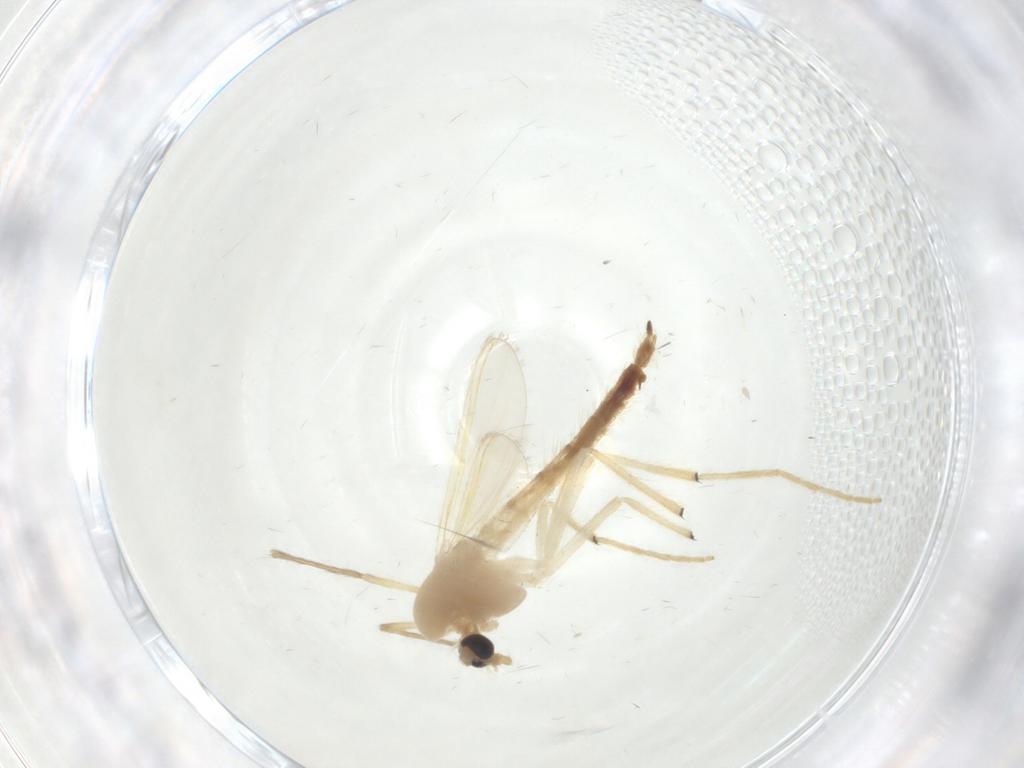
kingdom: Animalia
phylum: Arthropoda
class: Insecta
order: Diptera
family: Chironomidae
